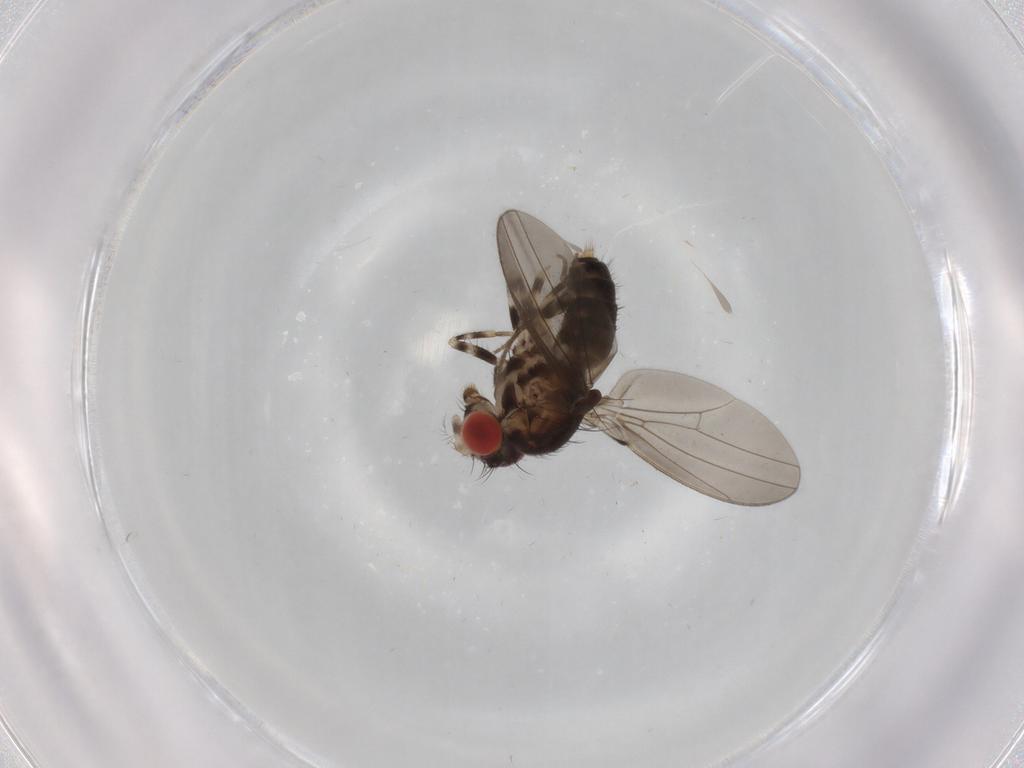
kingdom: Animalia
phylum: Arthropoda
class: Insecta
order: Diptera
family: Drosophilidae
